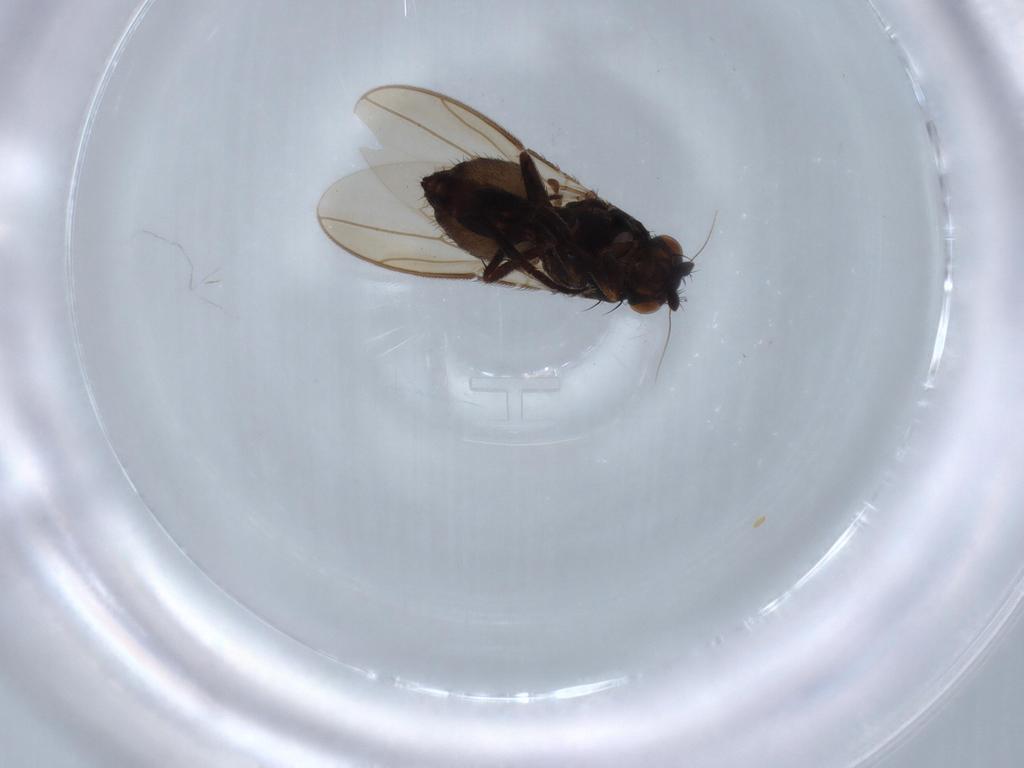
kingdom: Animalia
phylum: Arthropoda
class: Insecta
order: Diptera
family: Sphaeroceridae
